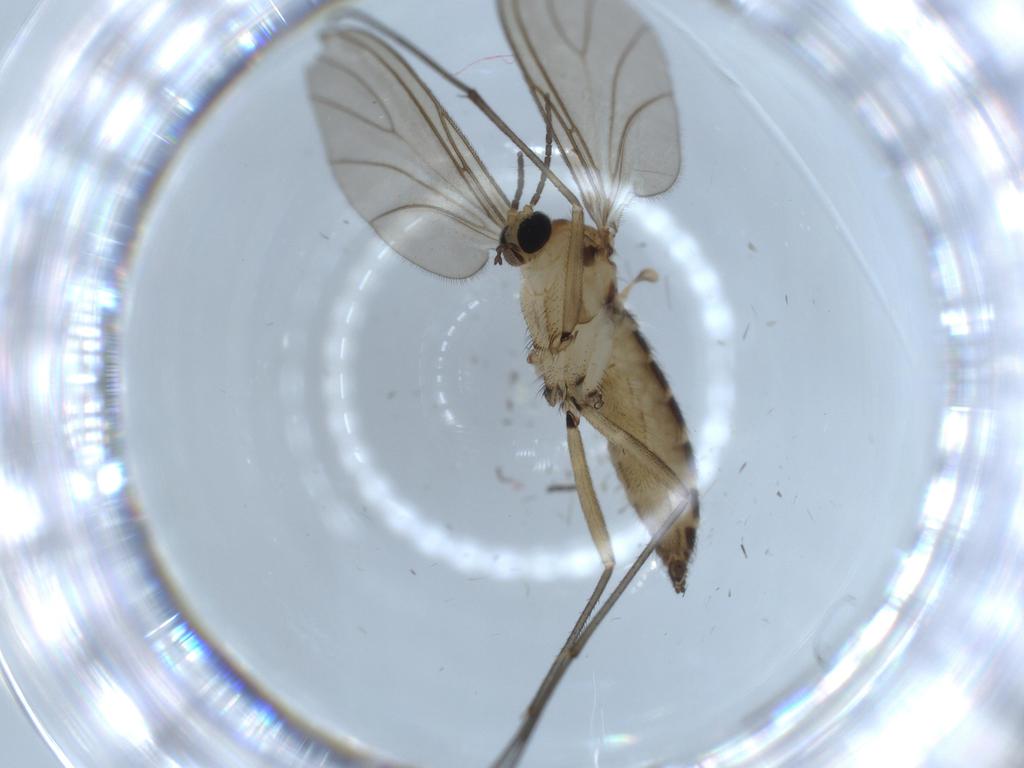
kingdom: Animalia
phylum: Arthropoda
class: Insecta
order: Diptera
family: Sciaridae
